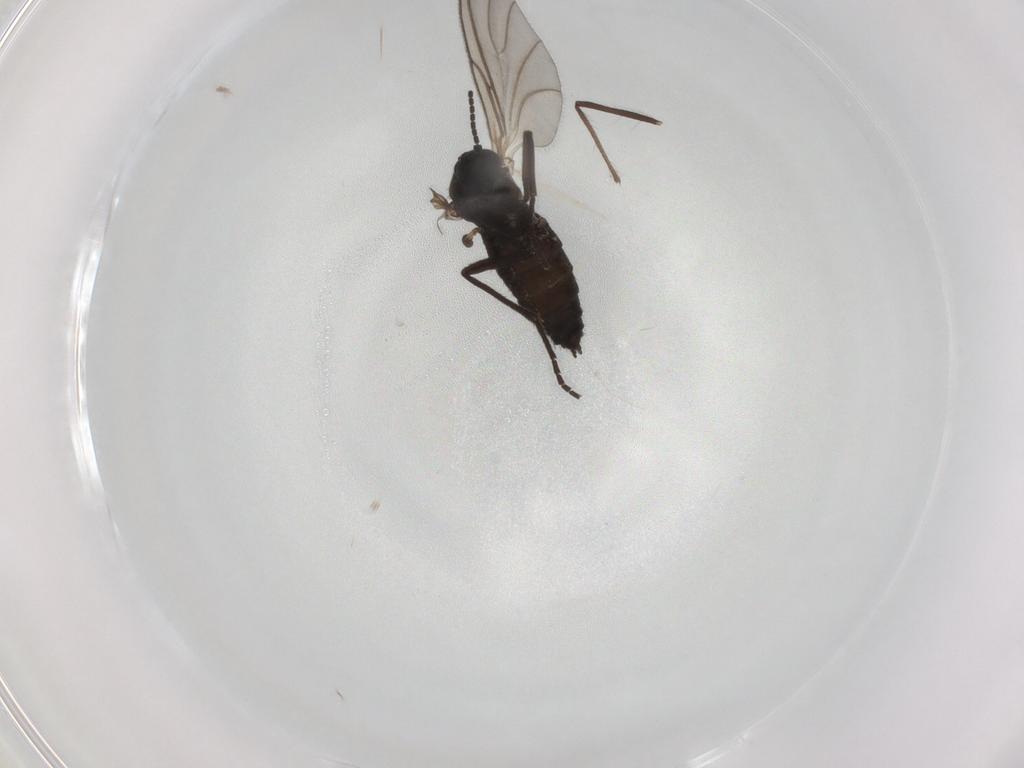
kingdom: Animalia
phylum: Arthropoda
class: Insecta
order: Diptera
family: Sciaridae
